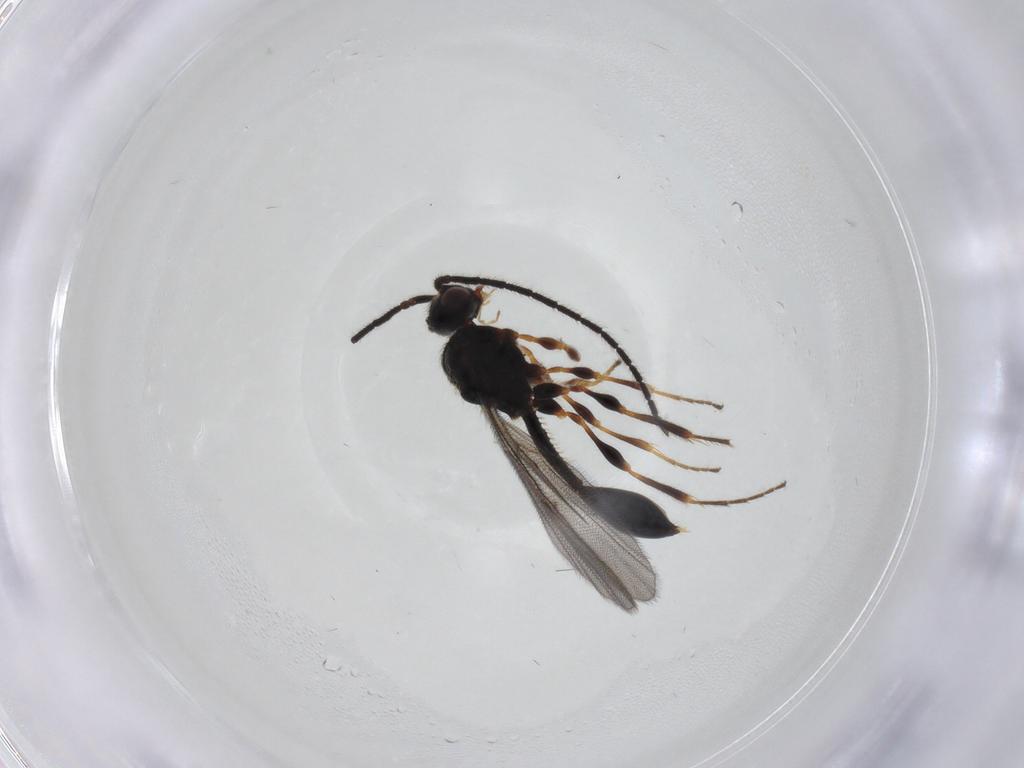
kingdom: Animalia
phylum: Arthropoda
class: Insecta
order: Hymenoptera
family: Diapriidae
